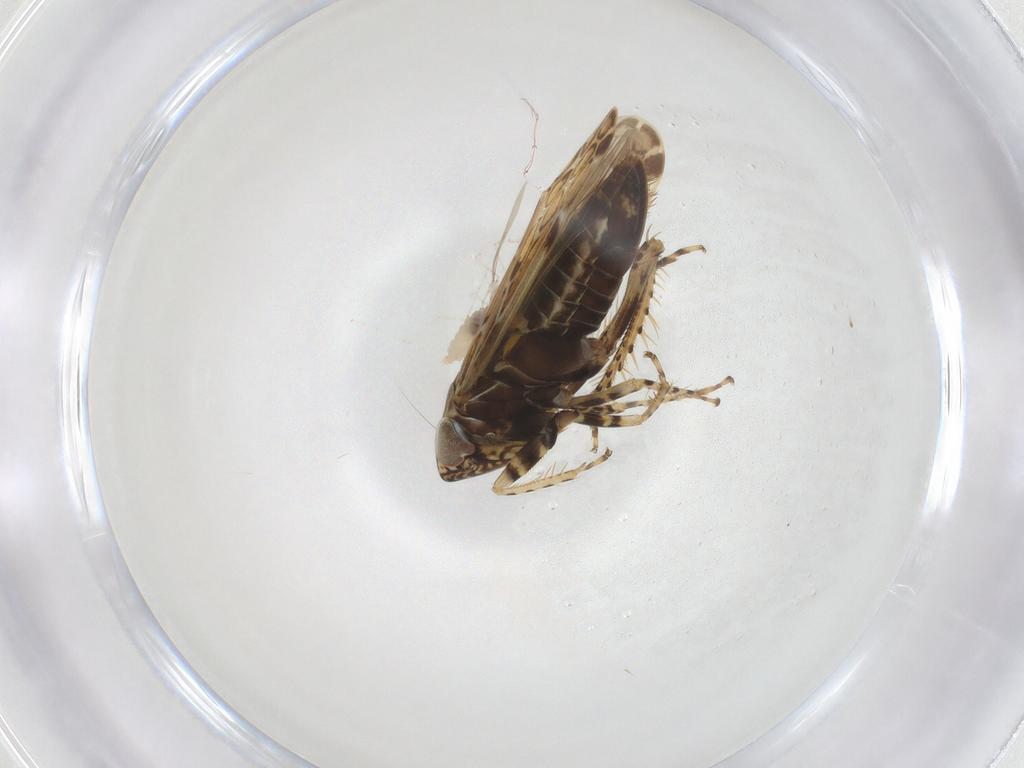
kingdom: Animalia
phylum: Arthropoda
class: Insecta
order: Hemiptera
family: Cicadellidae
